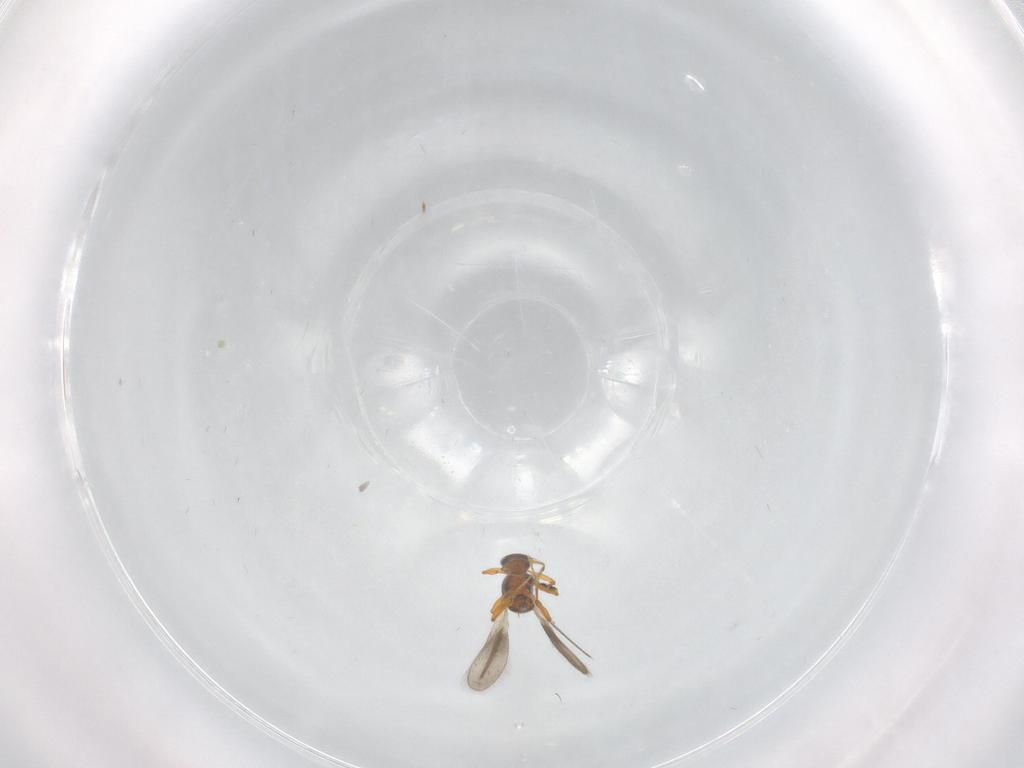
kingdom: Animalia
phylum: Arthropoda
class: Insecta
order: Hymenoptera
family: Platygastridae
